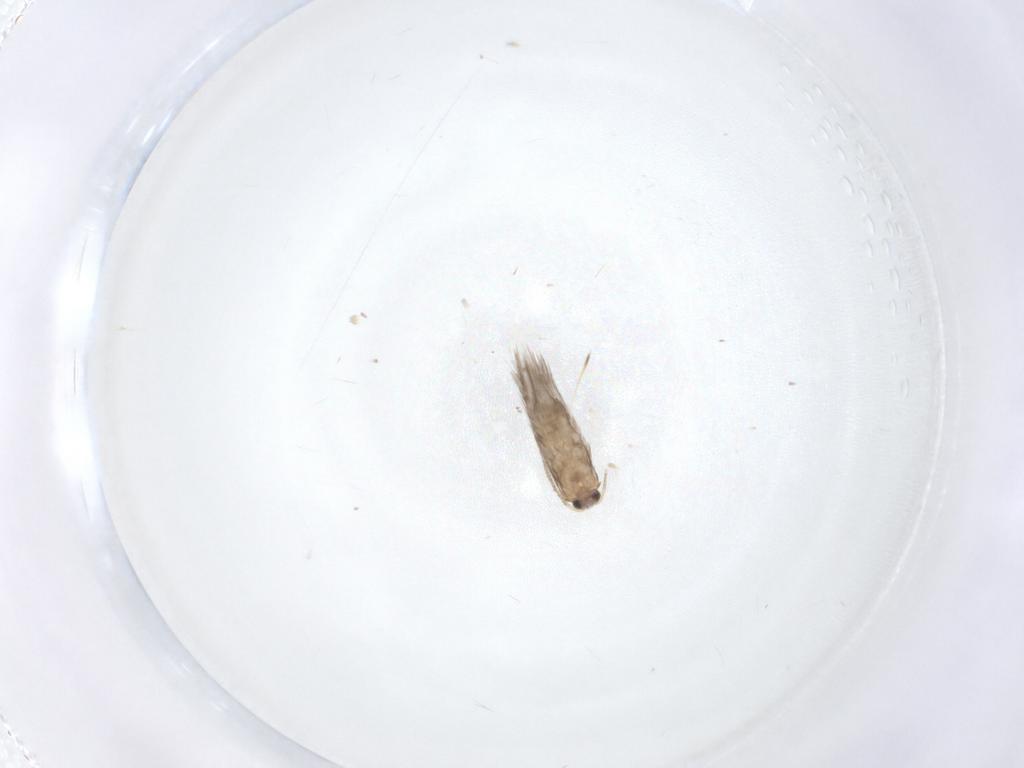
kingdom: Animalia
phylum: Arthropoda
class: Insecta
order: Lepidoptera
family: Nepticulidae
